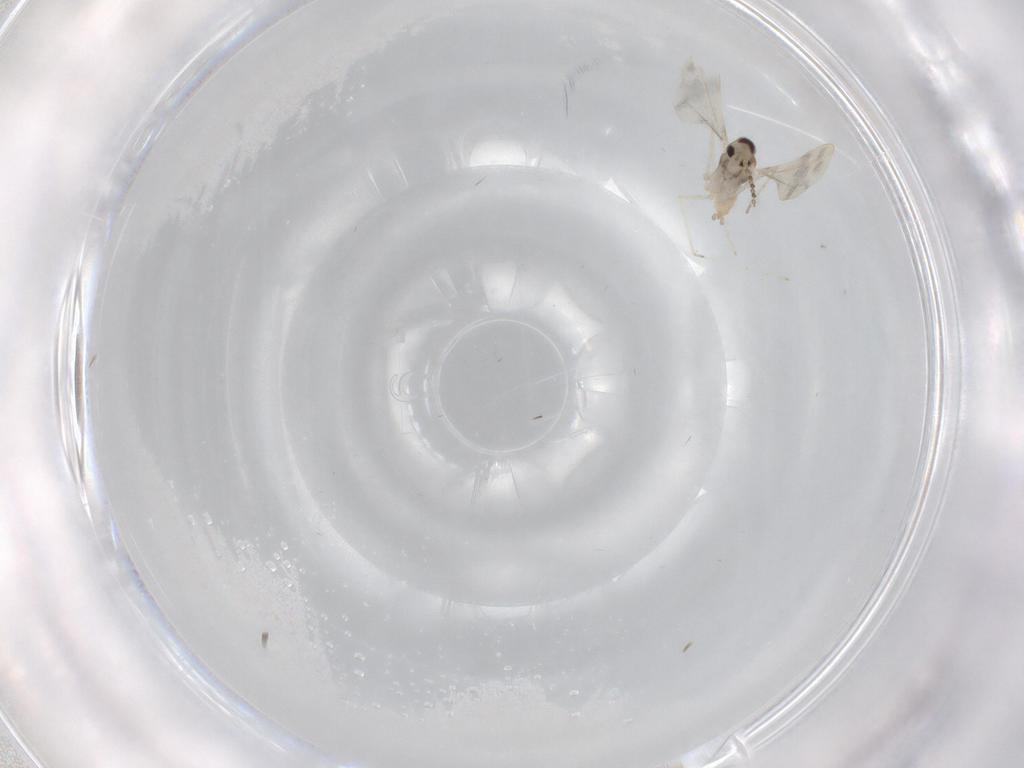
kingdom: Animalia
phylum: Arthropoda
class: Insecta
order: Diptera
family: Cecidomyiidae
